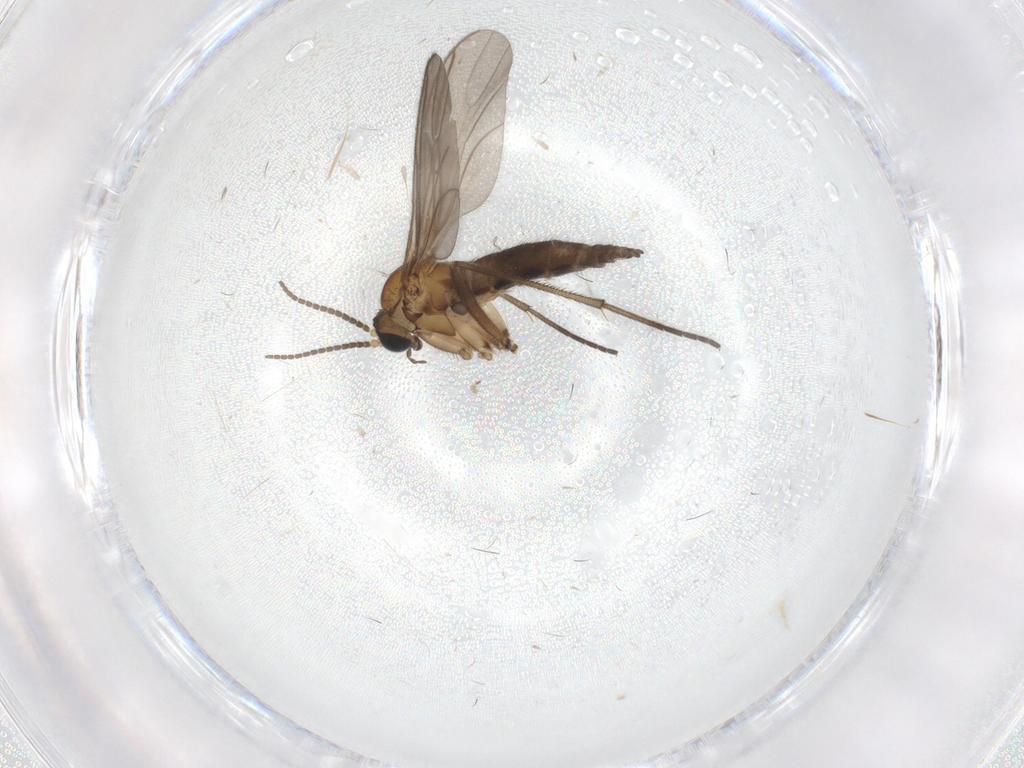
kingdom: Animalia
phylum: Arthropoda
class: Insecta
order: Diptera
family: Sciaridae
